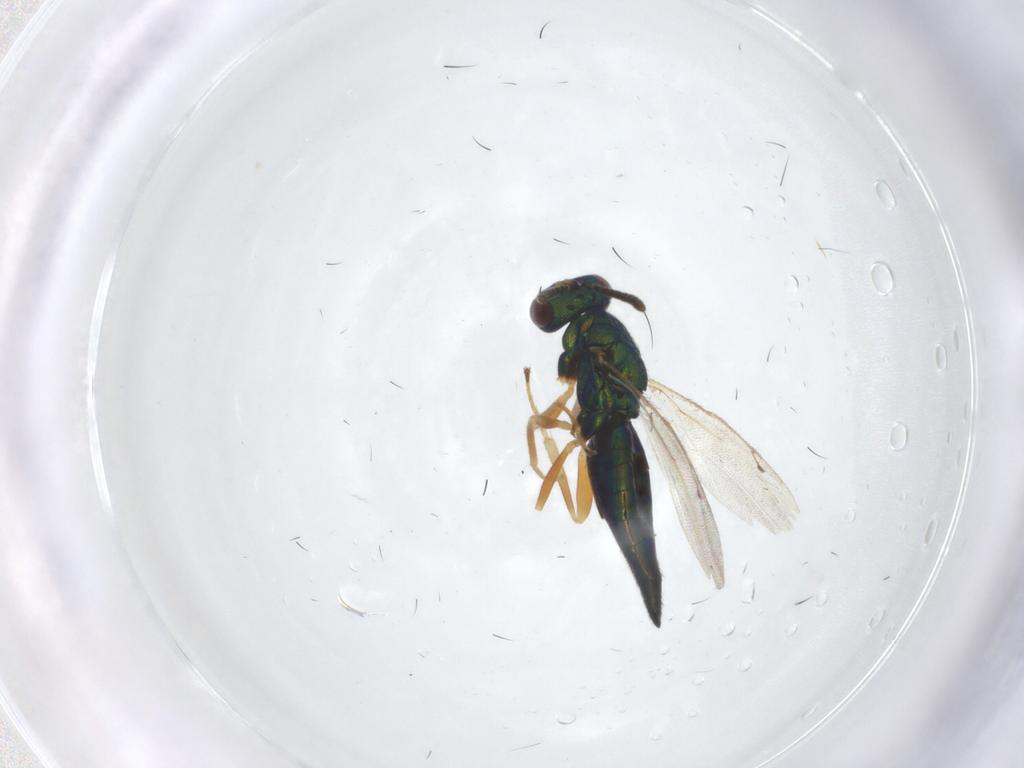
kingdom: Animalia
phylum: Arthropoda
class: Insecta
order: Hymenoptera
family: Pteromalidae
